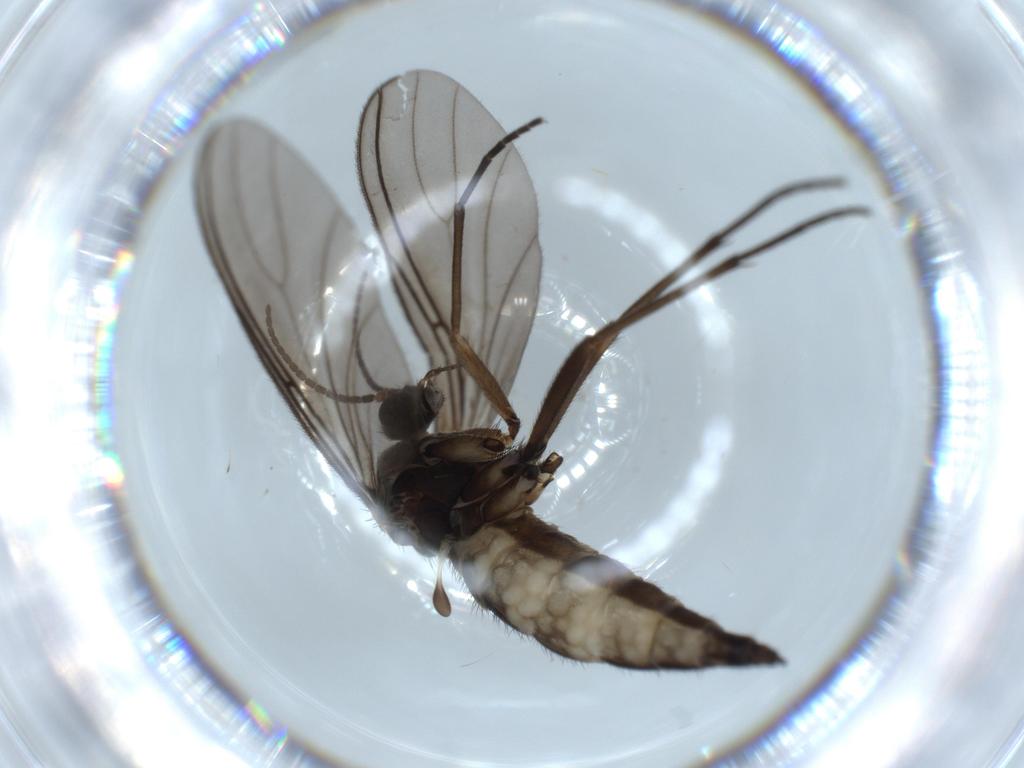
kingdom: Animalia
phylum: Arthropoda
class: Insecta
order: Diptera
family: Sciaridae
